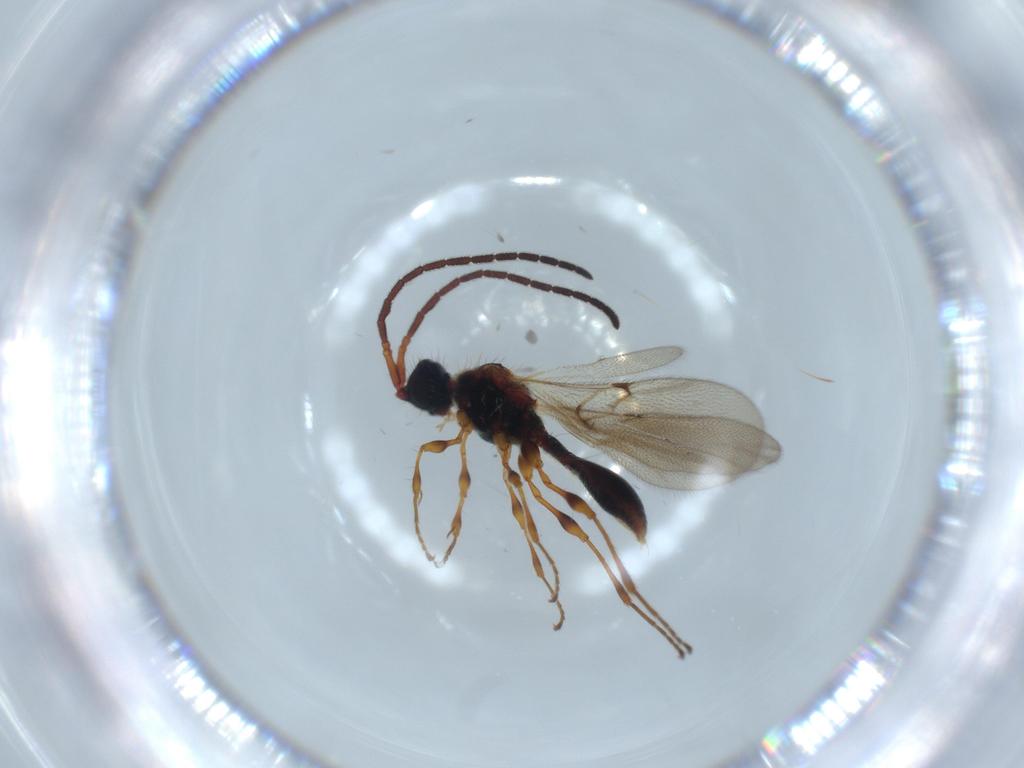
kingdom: Animalia
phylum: Arthropoda
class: Insecta
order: Hymenoptera
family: Diapriidae
